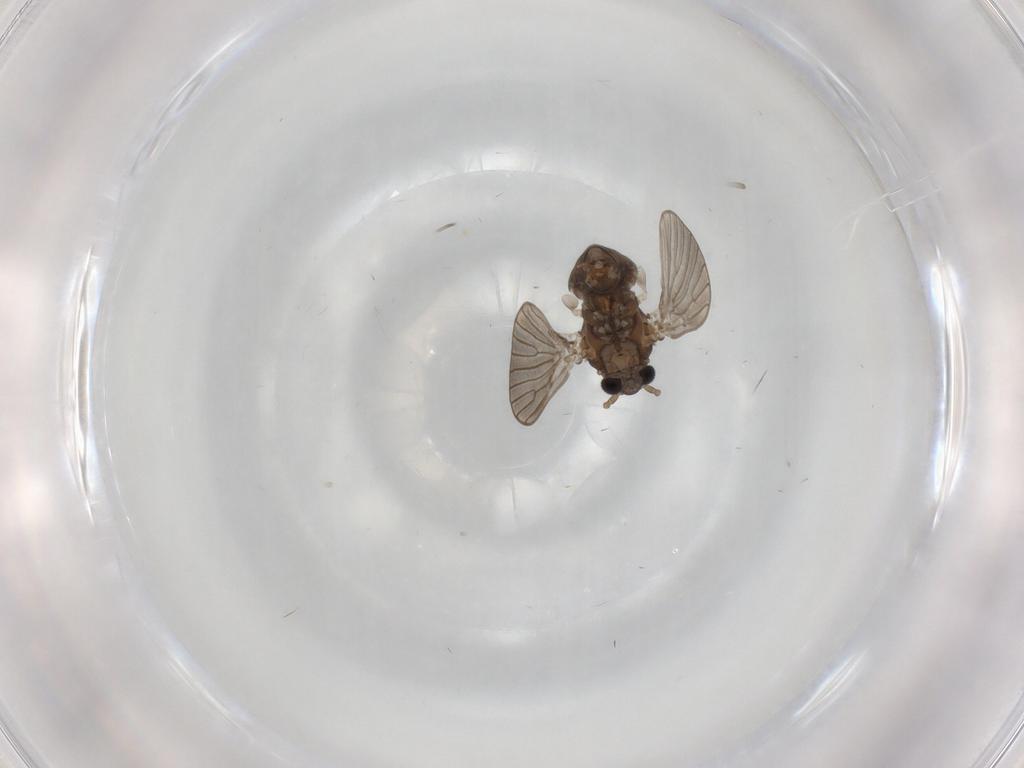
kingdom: Animalia
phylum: Arthropoda
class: Insecta
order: Diptera
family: Psychodidae
